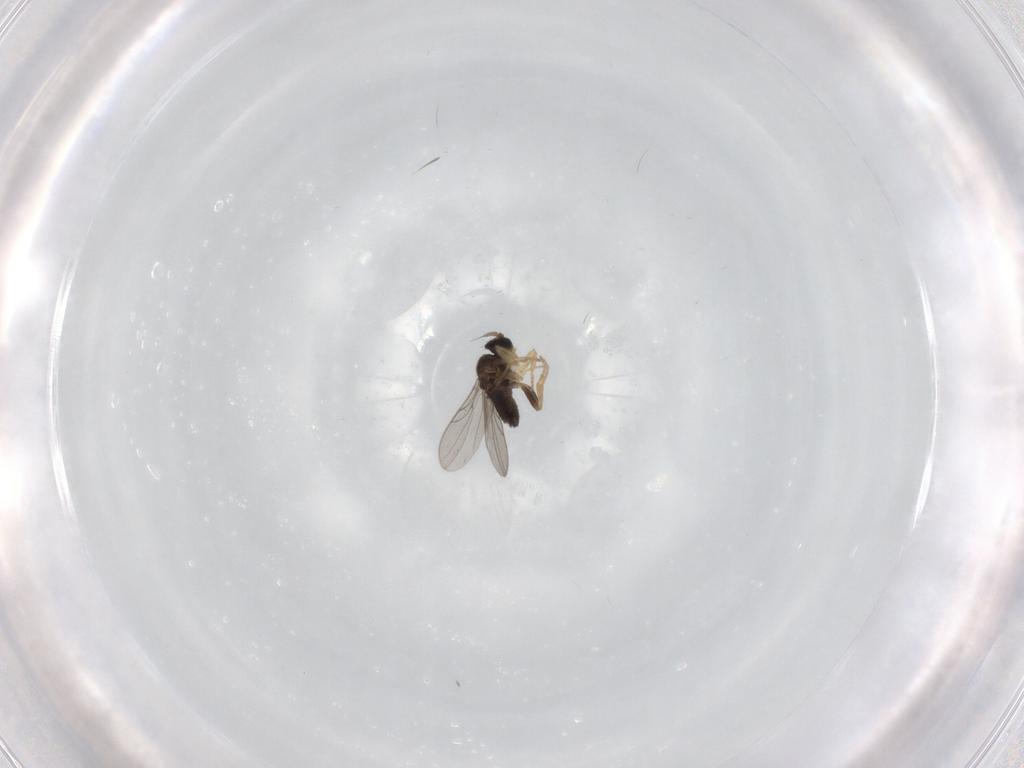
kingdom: Animalia
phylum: Arthropoda
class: Insecta
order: Diptera
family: Hybotidae
